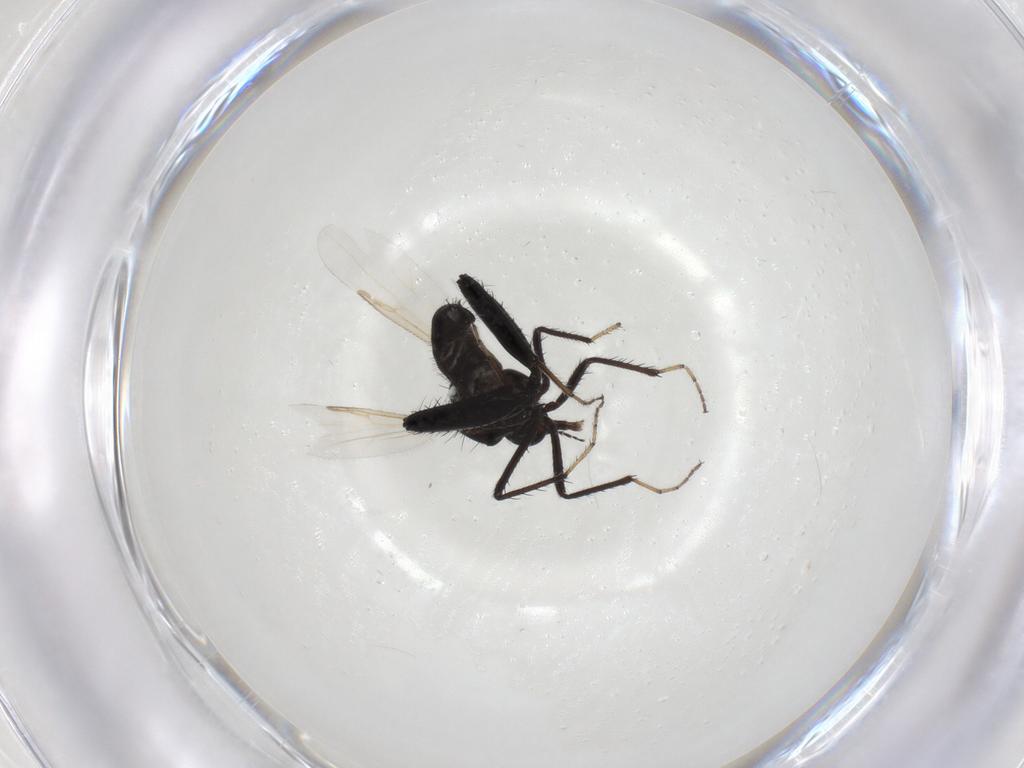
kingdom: Animalia
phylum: Arthropoda
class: Insecta
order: Diptera
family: Ceratopogonidae
